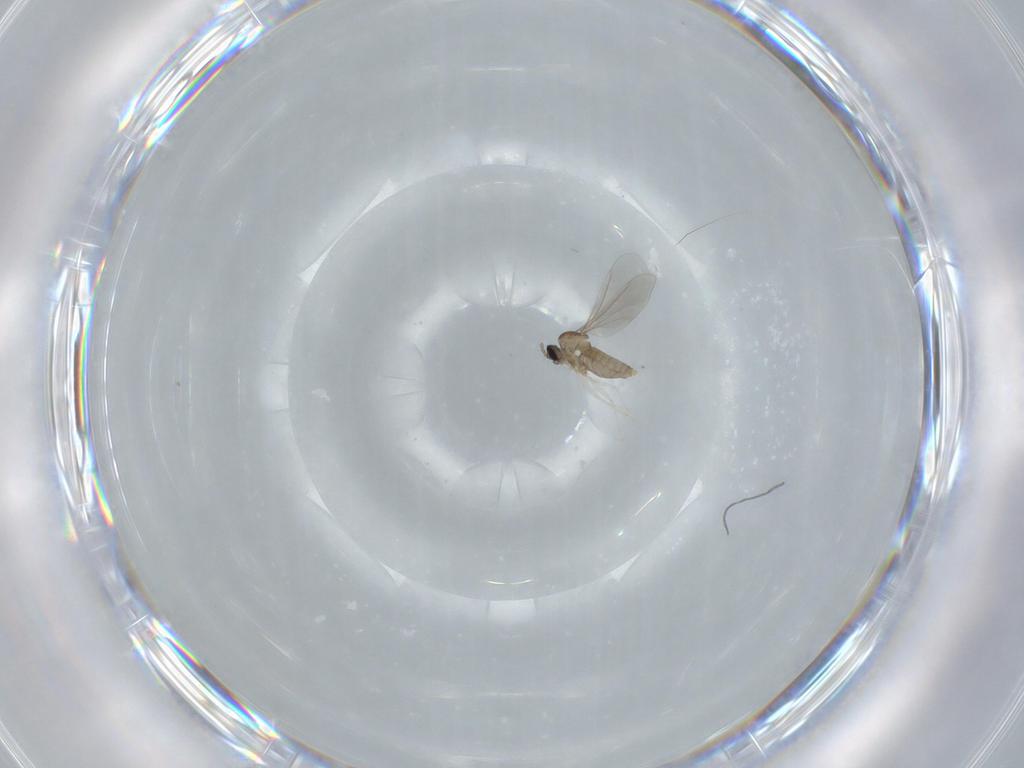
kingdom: Animalia
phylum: Arthropoda
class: Insecta
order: Diptera
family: Cecidomyiidae
